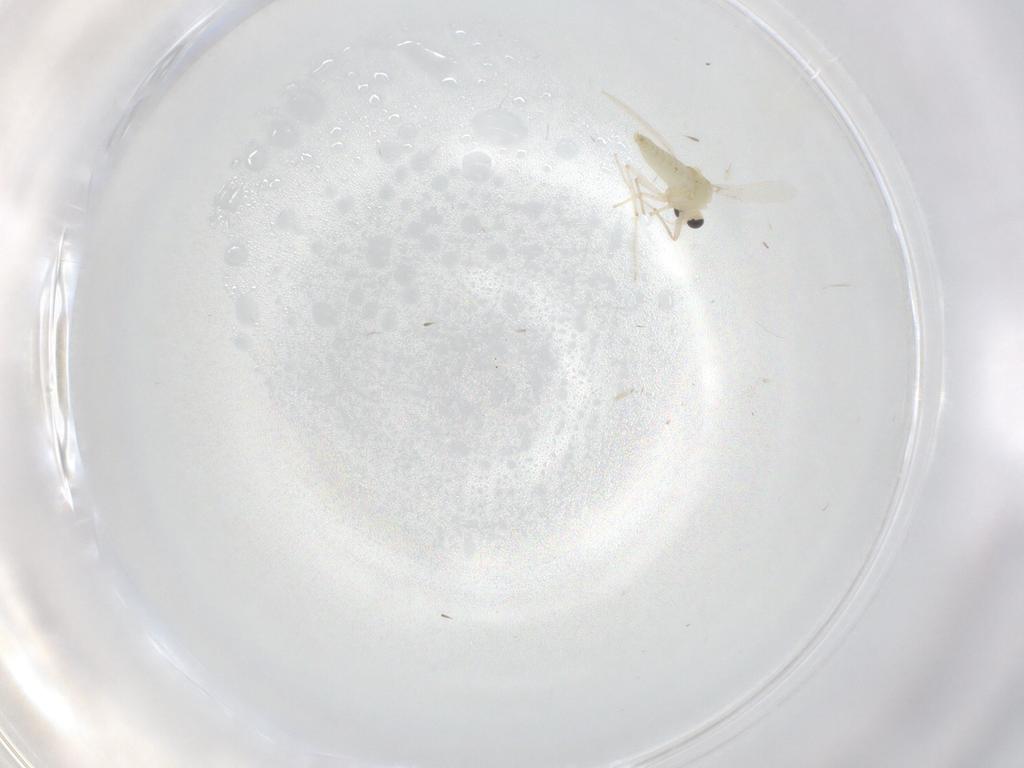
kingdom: Animalia
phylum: Arthropoda
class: Insecta
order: Diptera
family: Chironomidae
